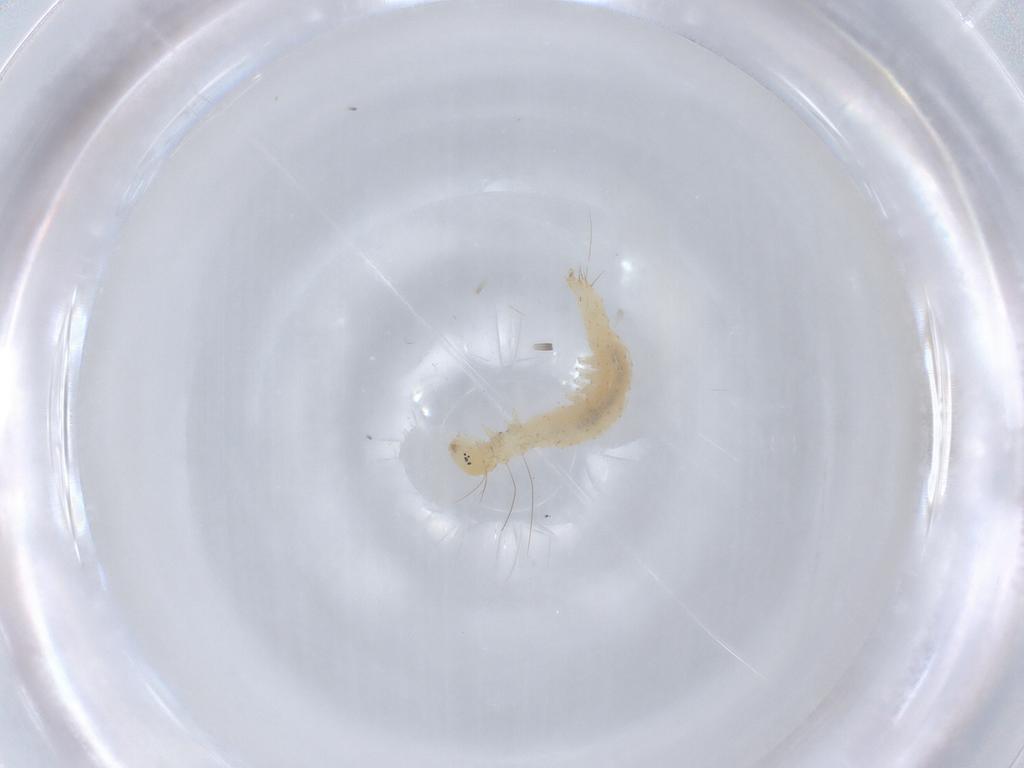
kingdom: Animalia
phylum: Arthropoda
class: Insecta
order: Lepidoptera
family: Immidae
